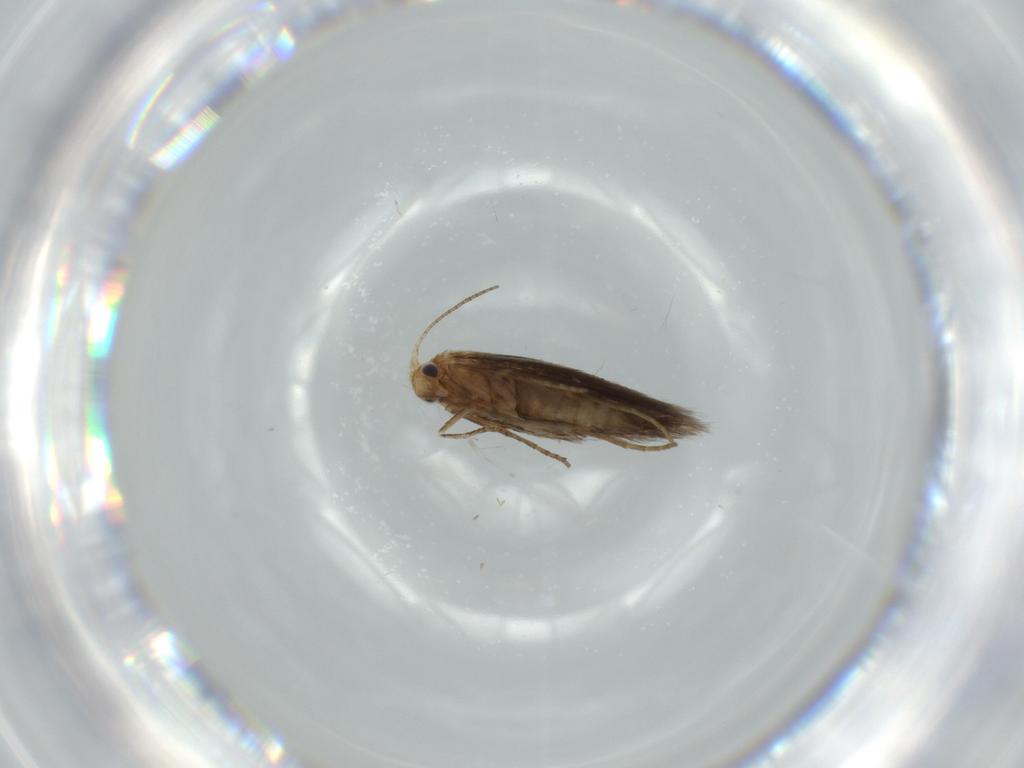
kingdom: Animalia
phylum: Arthropoda
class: Insecta
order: Lepidoptera
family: Bucculatricidae
